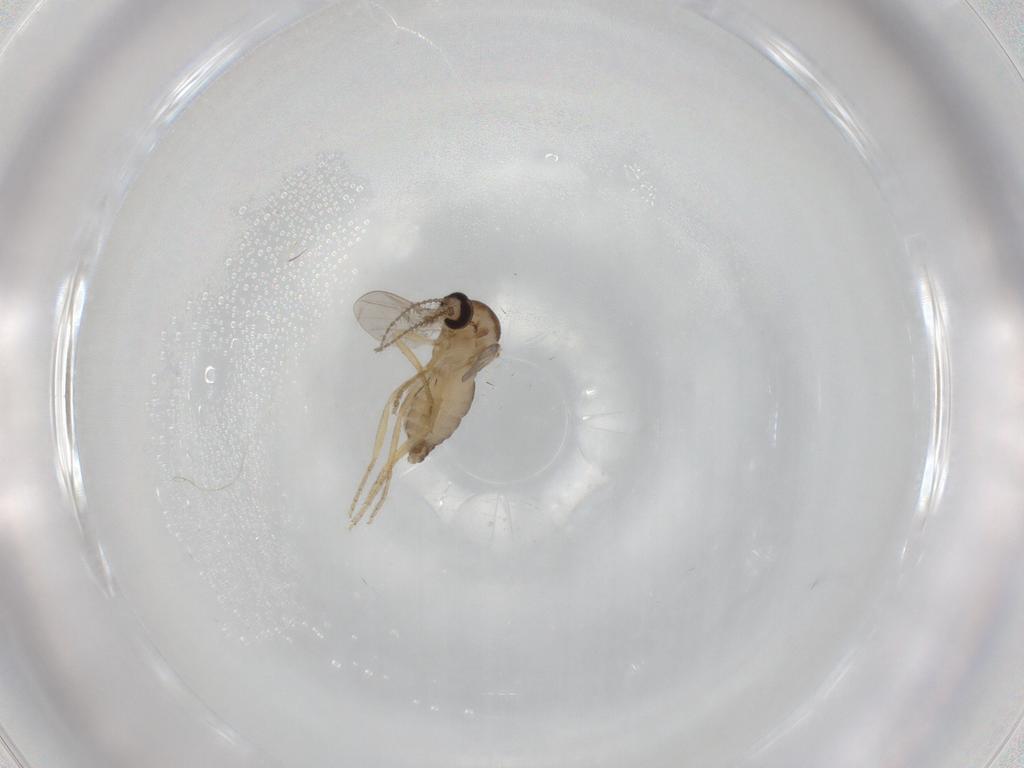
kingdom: Animalia
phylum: Arthropoda
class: Insecta
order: Diptera
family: Ceratopogonidae
